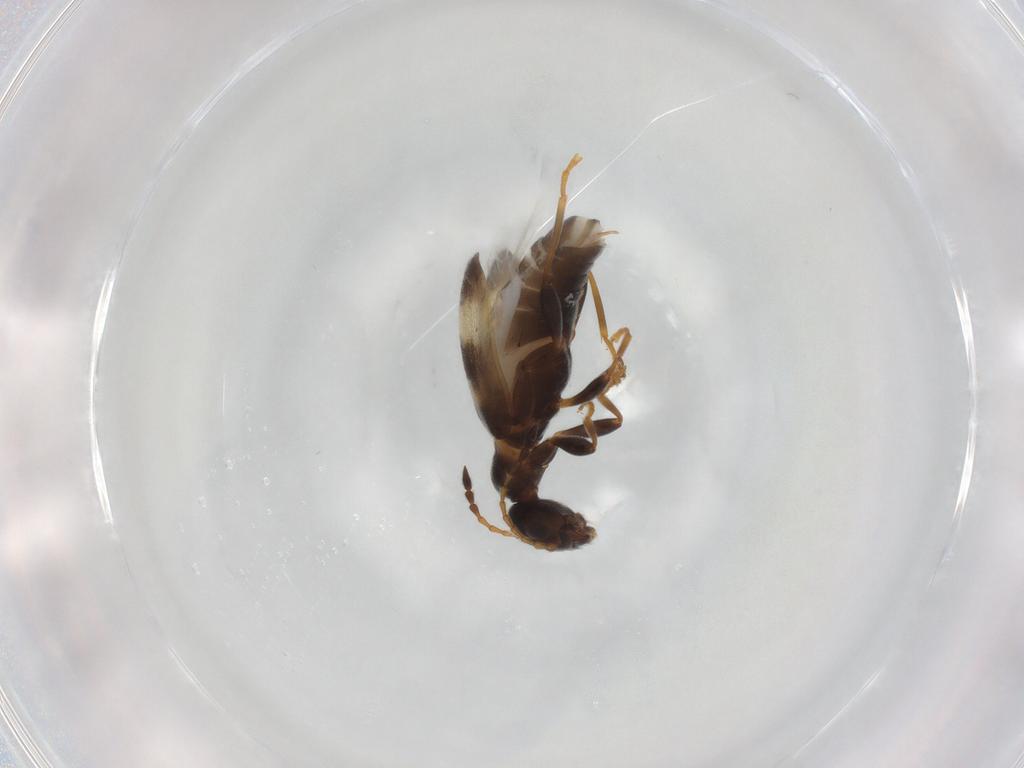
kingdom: Animalia
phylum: Arthropoda
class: Insecta
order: Coleoptera
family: Anthicidae
